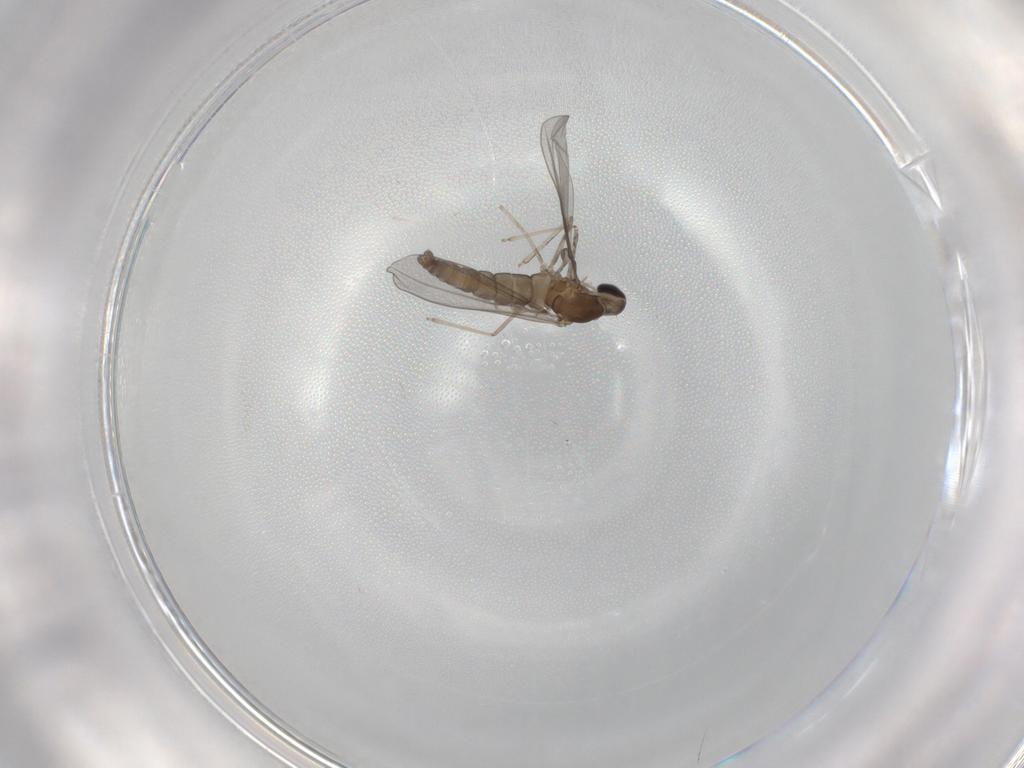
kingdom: Animalia
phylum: Arthropoda
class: Insecta
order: Diptera
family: Cecidomyiidae
